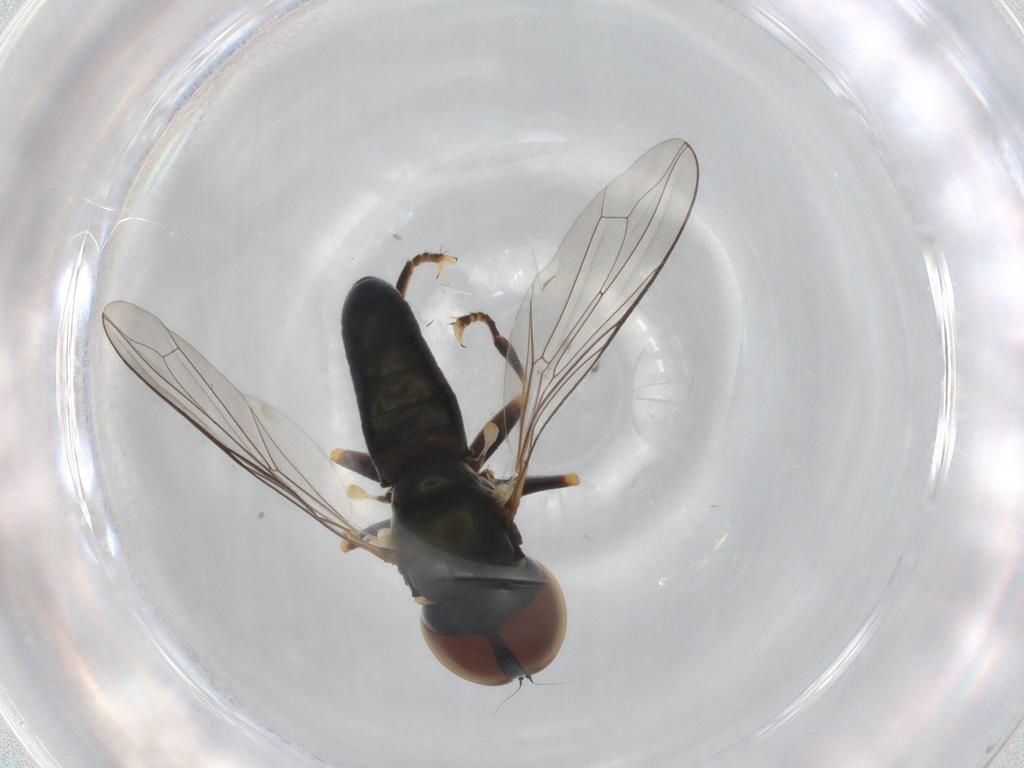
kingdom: Animalia
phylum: Arthropoda
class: Insecta
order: Diptera
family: Pipunculidae
